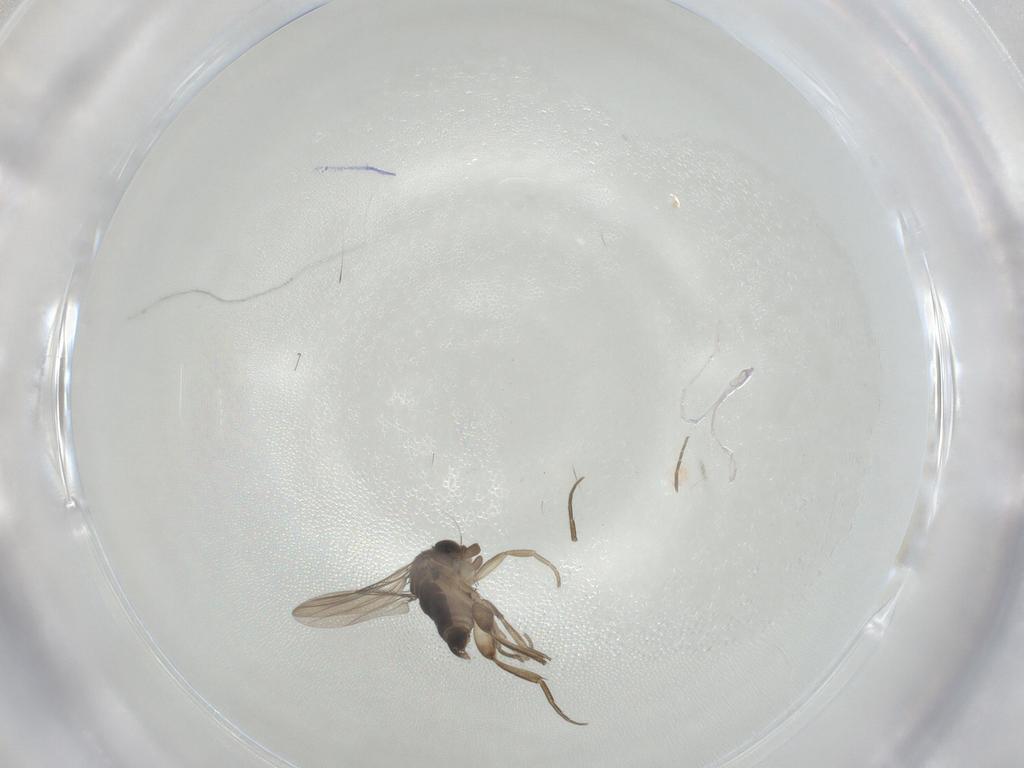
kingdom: Animalia
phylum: Arthropoda
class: Insecta
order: Diptera
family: Phoridae
